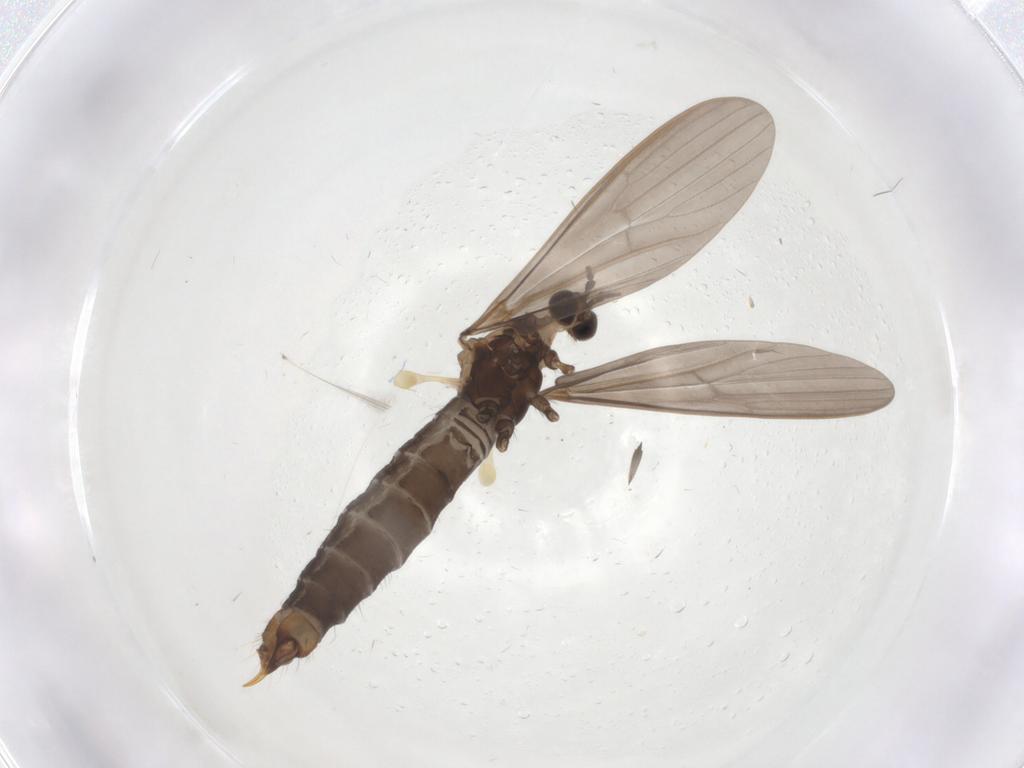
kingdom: Animalia
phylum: Arthropoda
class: Insecta
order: Diptera
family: Limoniidae
